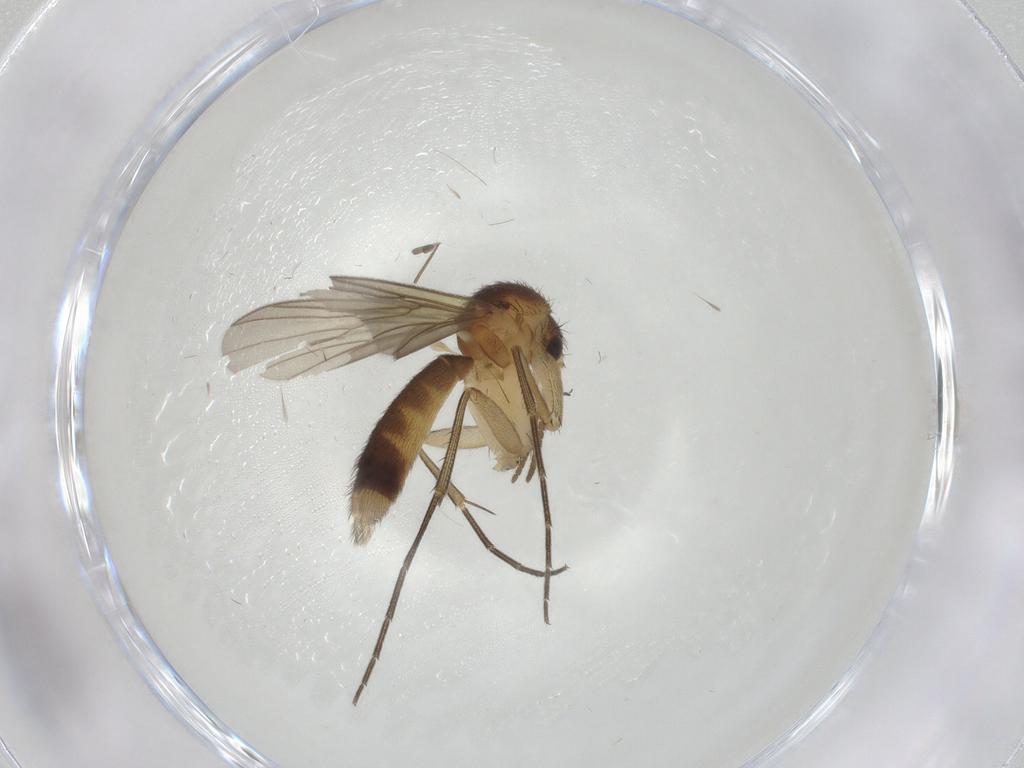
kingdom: Animalia
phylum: Arthropoda
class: Insecta
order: Diptera
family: Mycetophilidae
